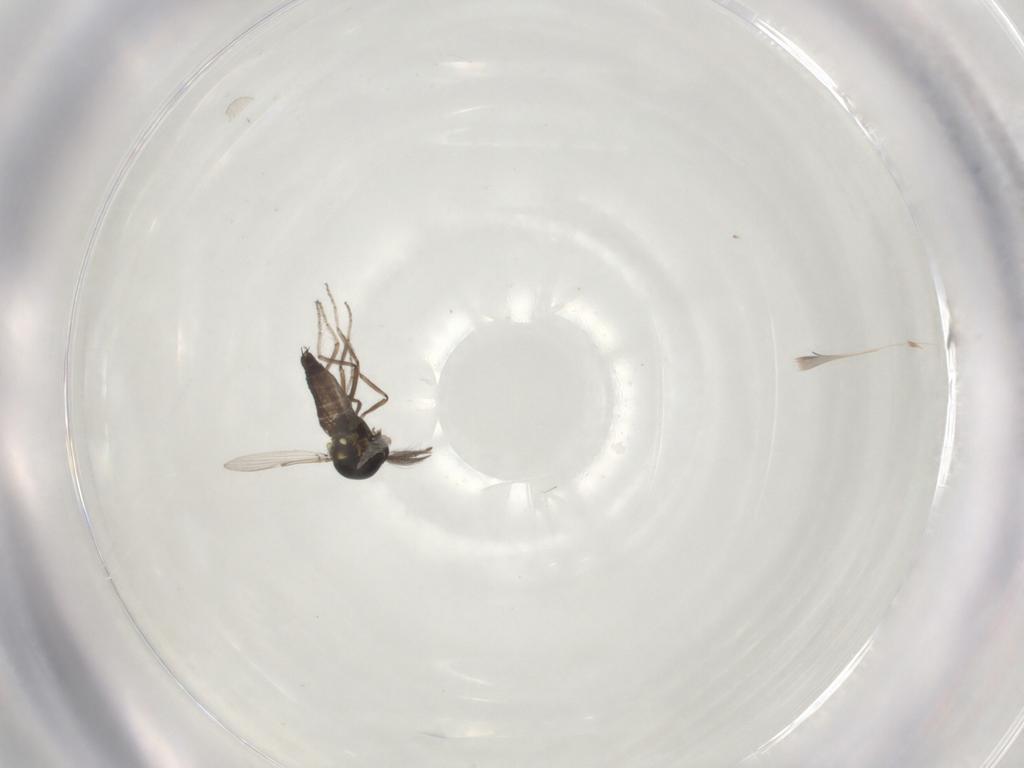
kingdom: Animalia
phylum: Arthropoda
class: Insecta
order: Diptera
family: Ceratopogonidae
